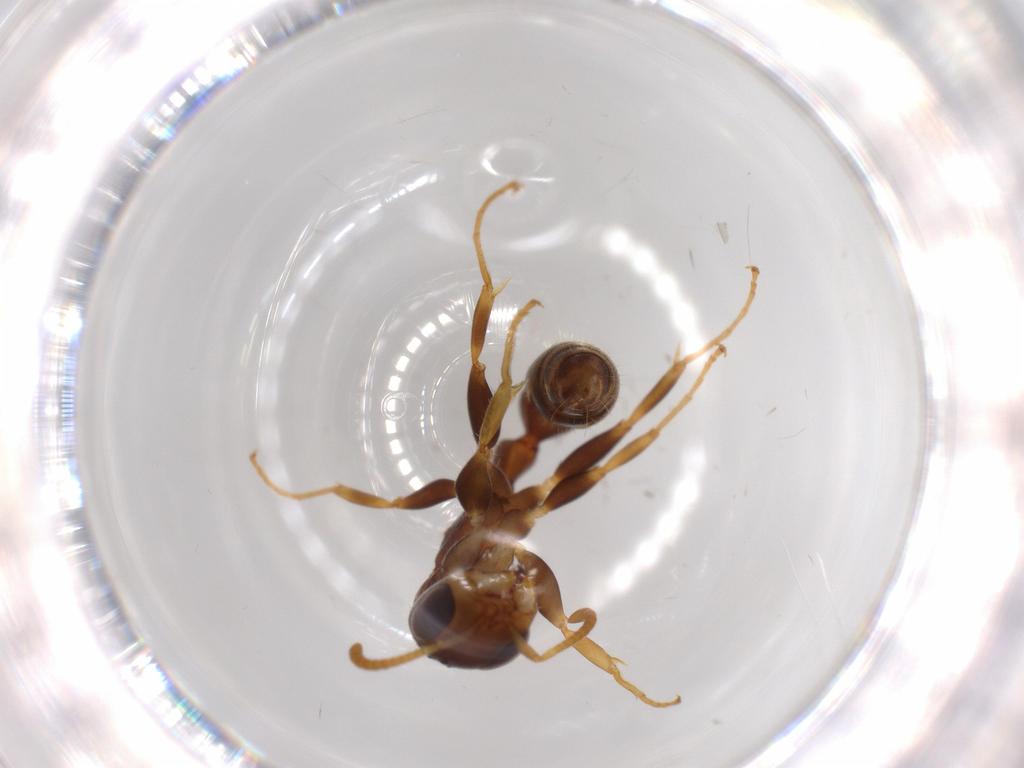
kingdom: Animalia
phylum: Arthropoda
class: Insecta
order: Hymenoptera
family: Formicidae
